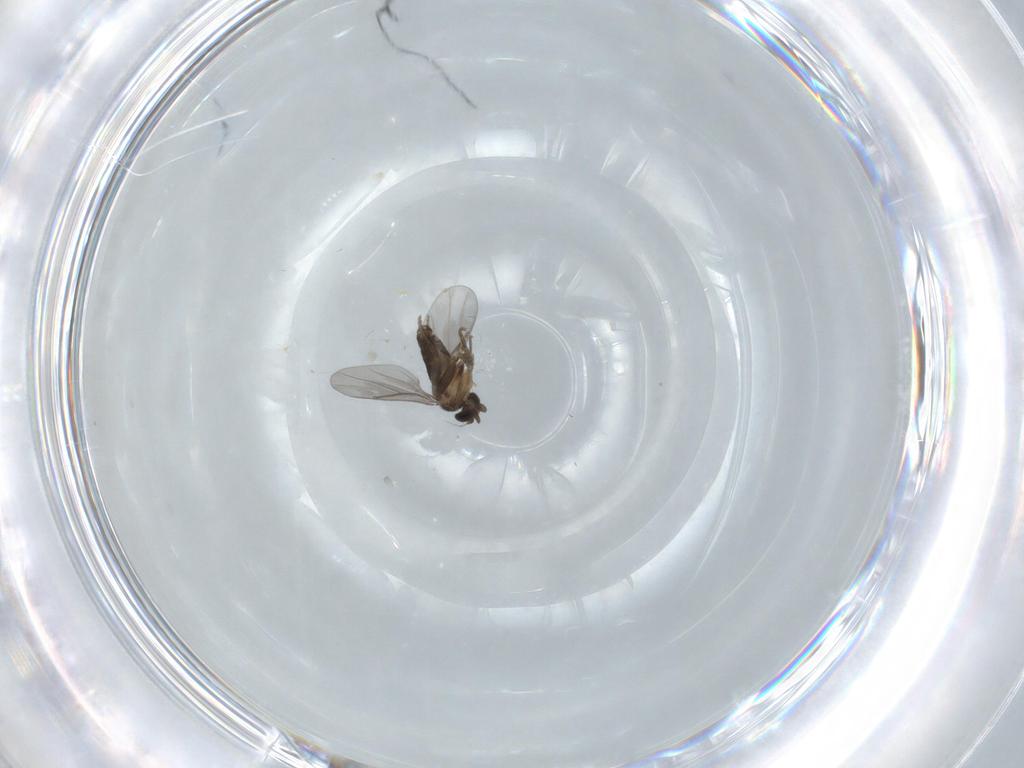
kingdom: Animalia
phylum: Arthropoda
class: Insecta
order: Diptera
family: Chironomidae
